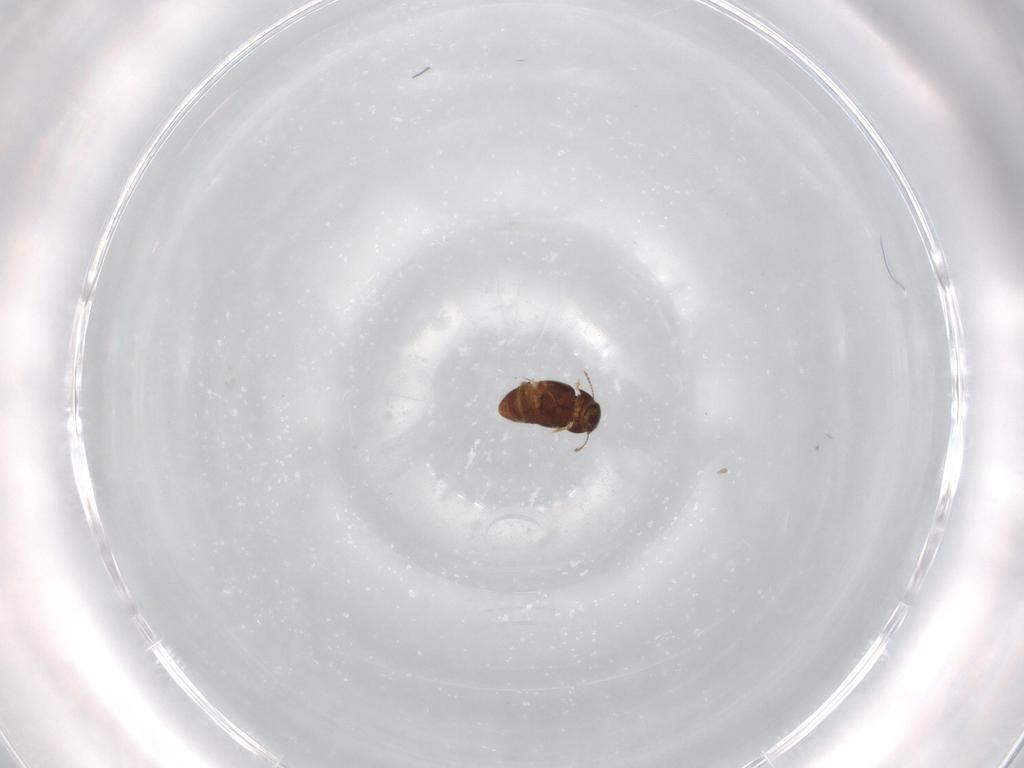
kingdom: Animalia
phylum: Arthropoda
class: Insecta
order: Coleoptera
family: Ptiliidae
